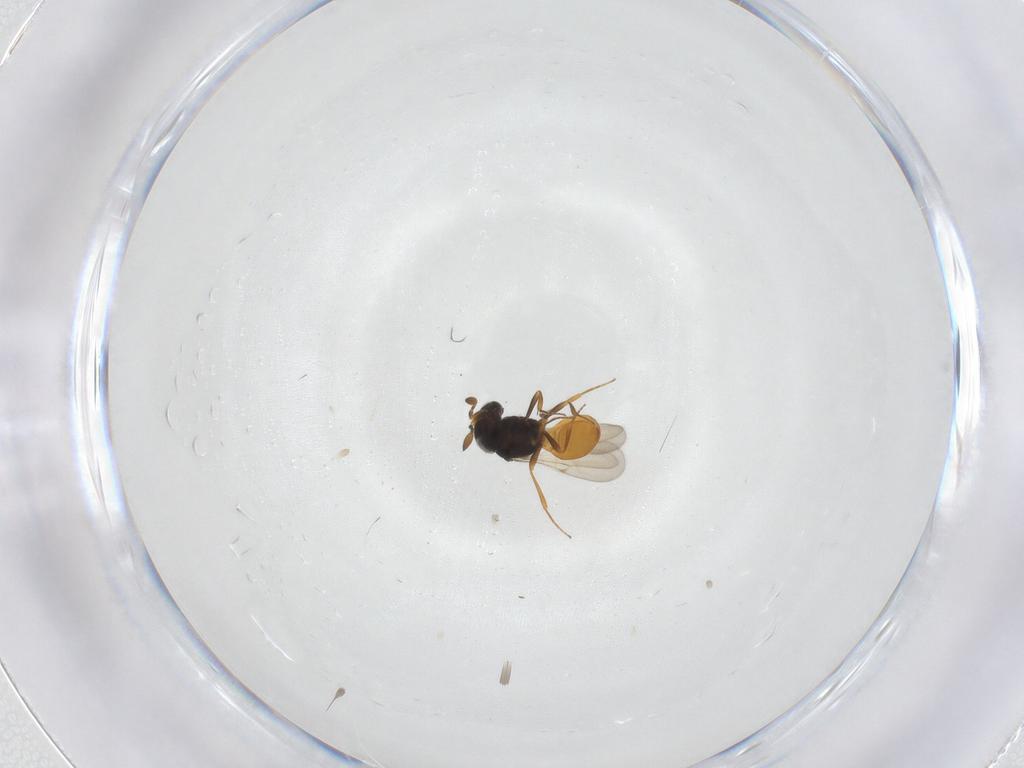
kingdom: Animalia
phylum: Arthropoda
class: Insecta
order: Hymenoptera
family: Scelionidae
